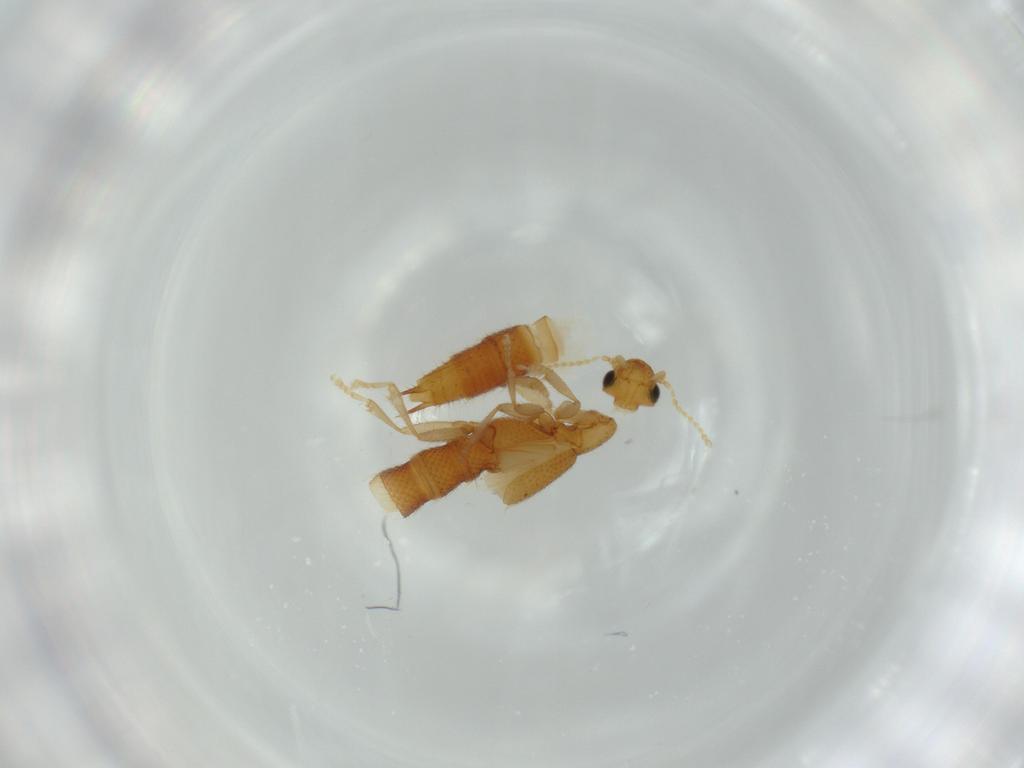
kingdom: Animalia
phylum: Arthropoda
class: Insecta
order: Coleoptera
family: Staphylinidae
